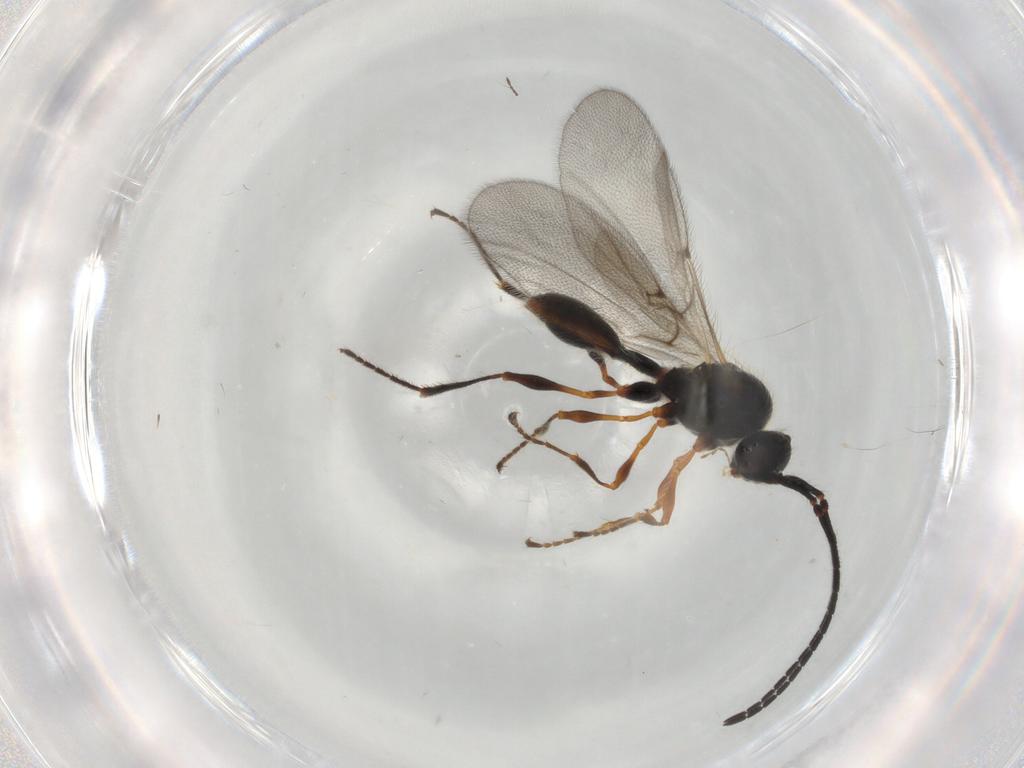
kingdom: Animalia
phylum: Arthropoda
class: Insecta
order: Hymenoptera
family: Diapriidae
